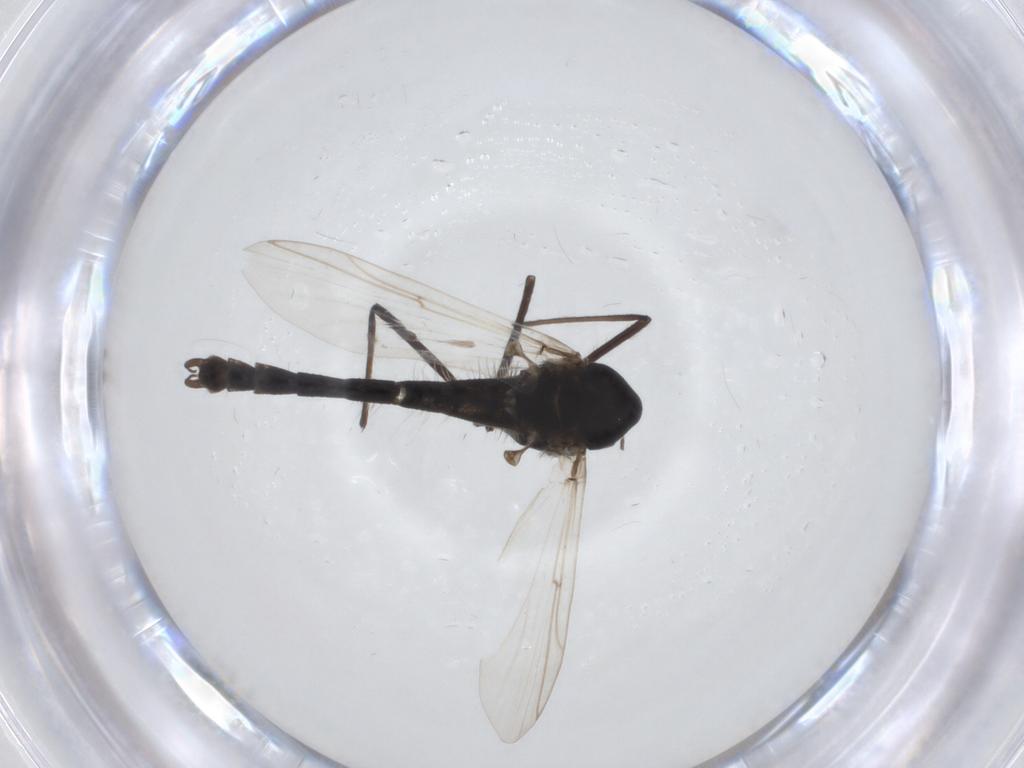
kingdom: Animalia
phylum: Arthropoda
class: Insecta
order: Diptera
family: Chironomidae
